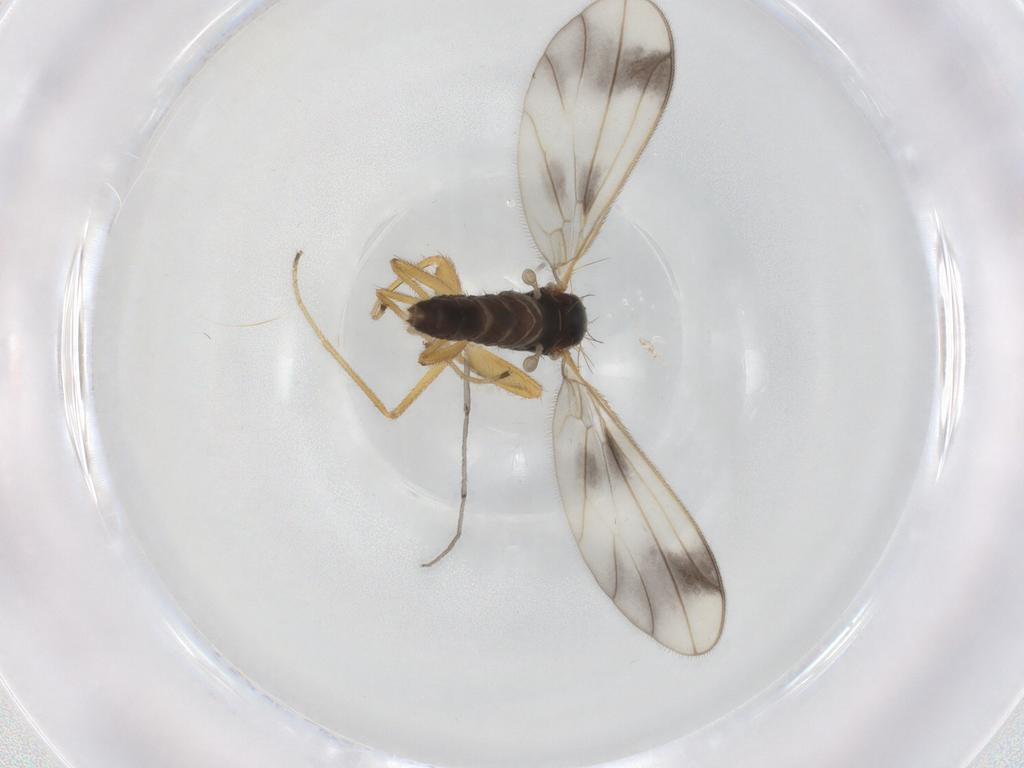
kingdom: Animalia
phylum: Arthropoda
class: Insecta
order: Diptera
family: Empididae
